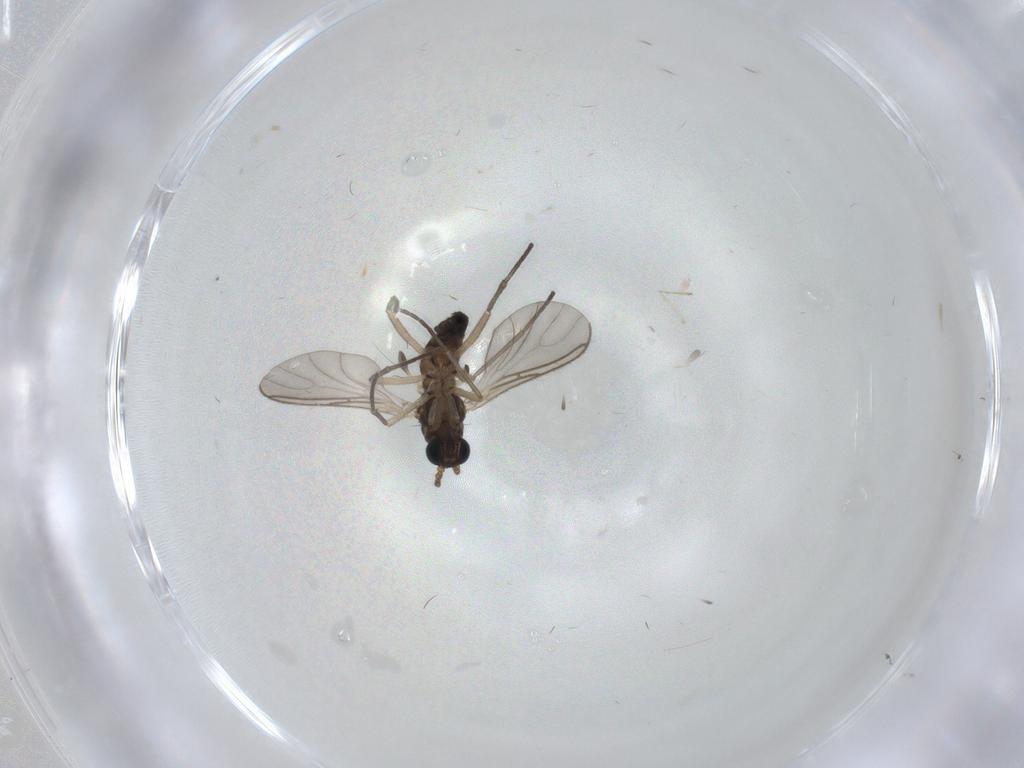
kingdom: Animalia
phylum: Arthropoda
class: Insecta
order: Diptera
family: Sciaridae
